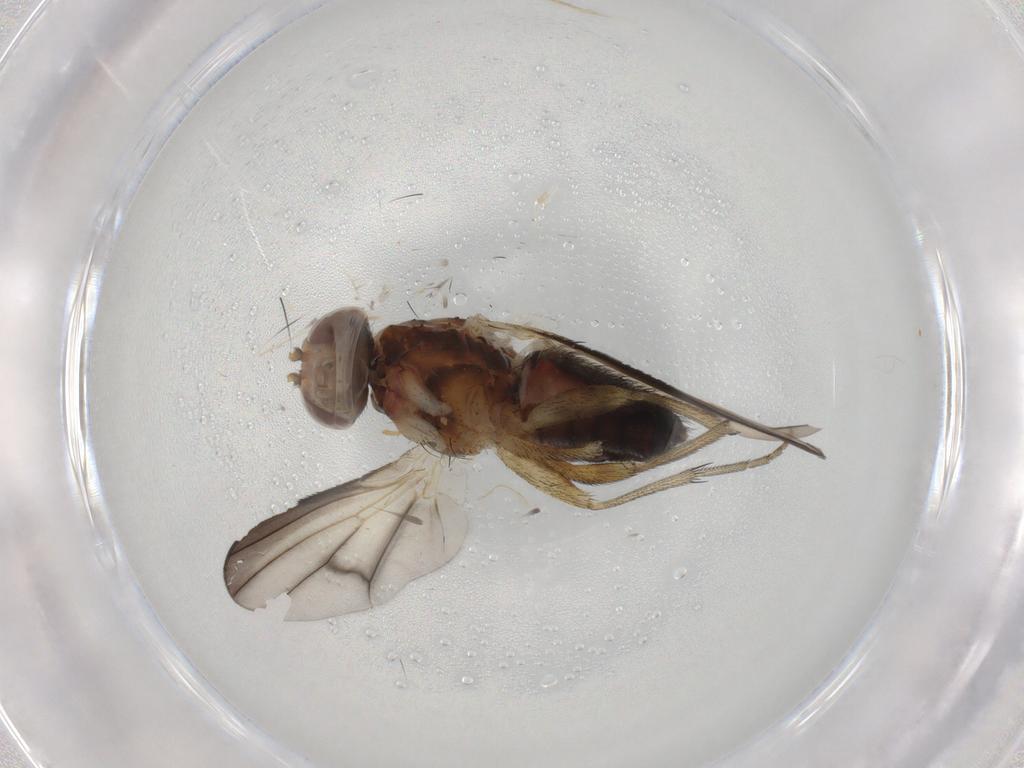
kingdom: Animalia
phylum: Arthropoda
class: Insecta
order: Diptera
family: Heleomyzidae
